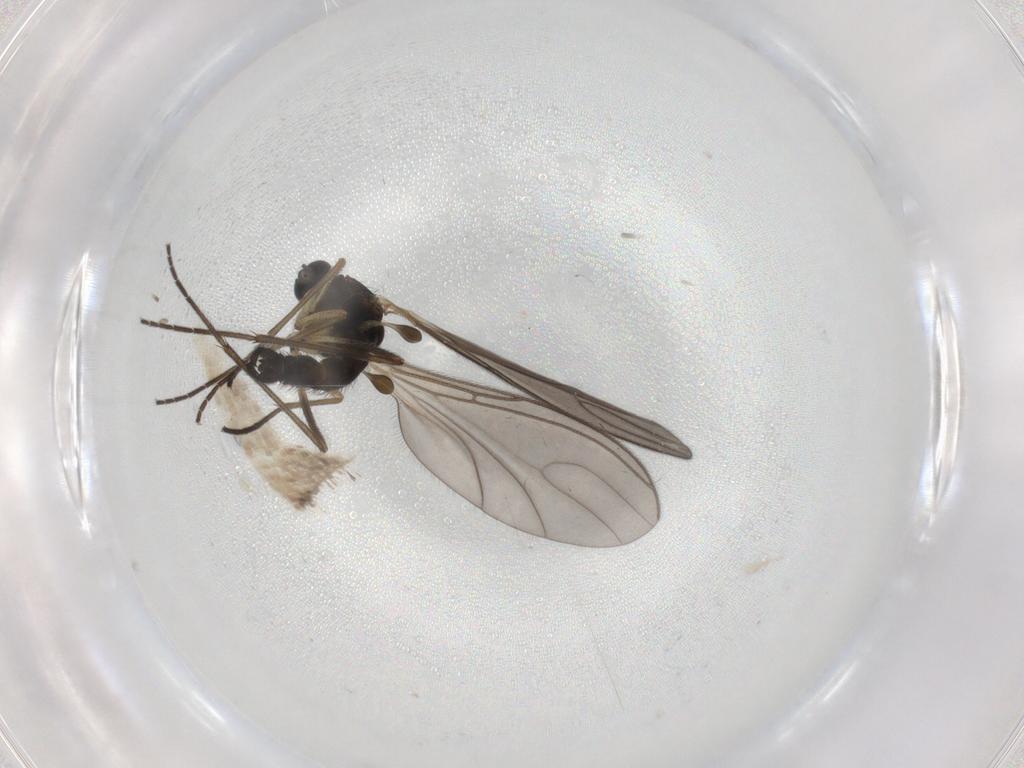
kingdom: Animalia
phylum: Arthropoda
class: Insecta
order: Diptera
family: Sciaridae
